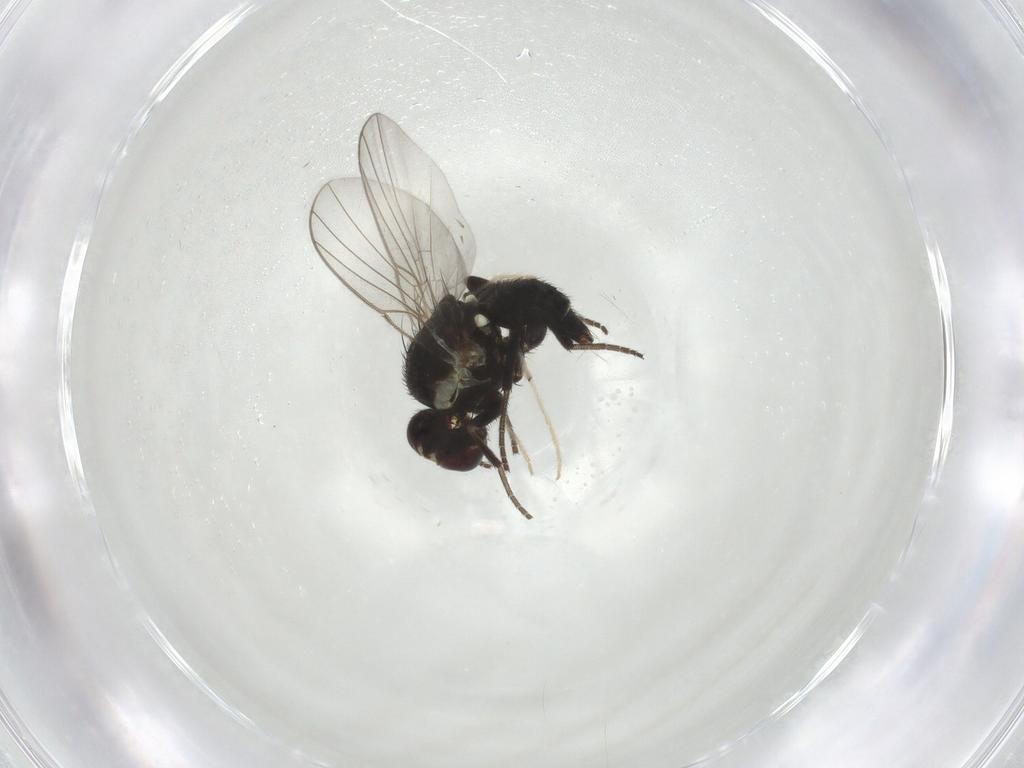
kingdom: Animalia
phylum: Arthropoda
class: Insecta
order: Diptera
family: Agromyzidae
